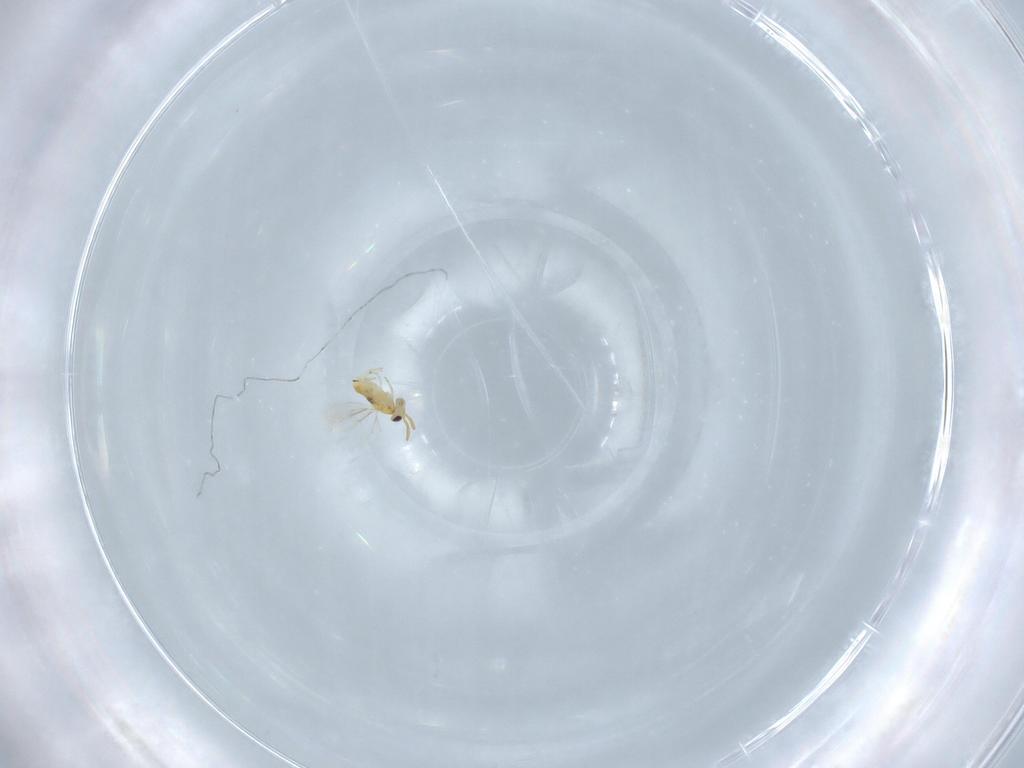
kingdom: Animalia
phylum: Arthropoda
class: Insecta
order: Hymenoptera
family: Aphelinidae
